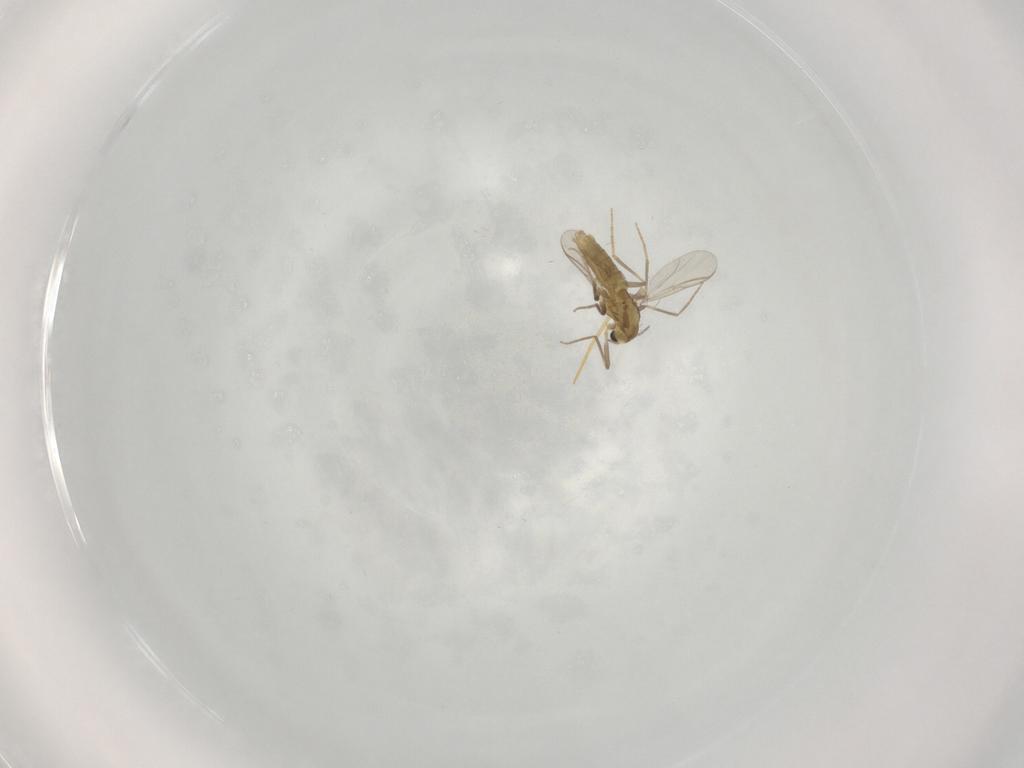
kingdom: Animalia
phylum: Arthropoda
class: Insecta
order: Diptera
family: Chironomidae
